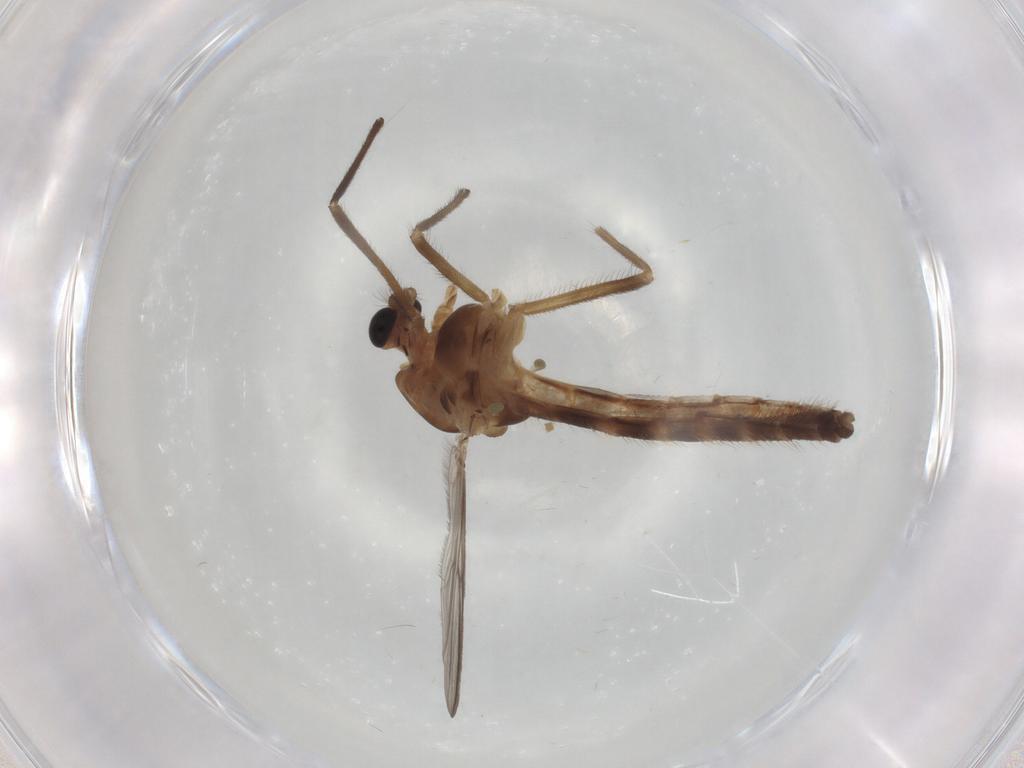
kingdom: Animalia
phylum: Arthropoda
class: Insecta
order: Diptera
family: Chironomidae
